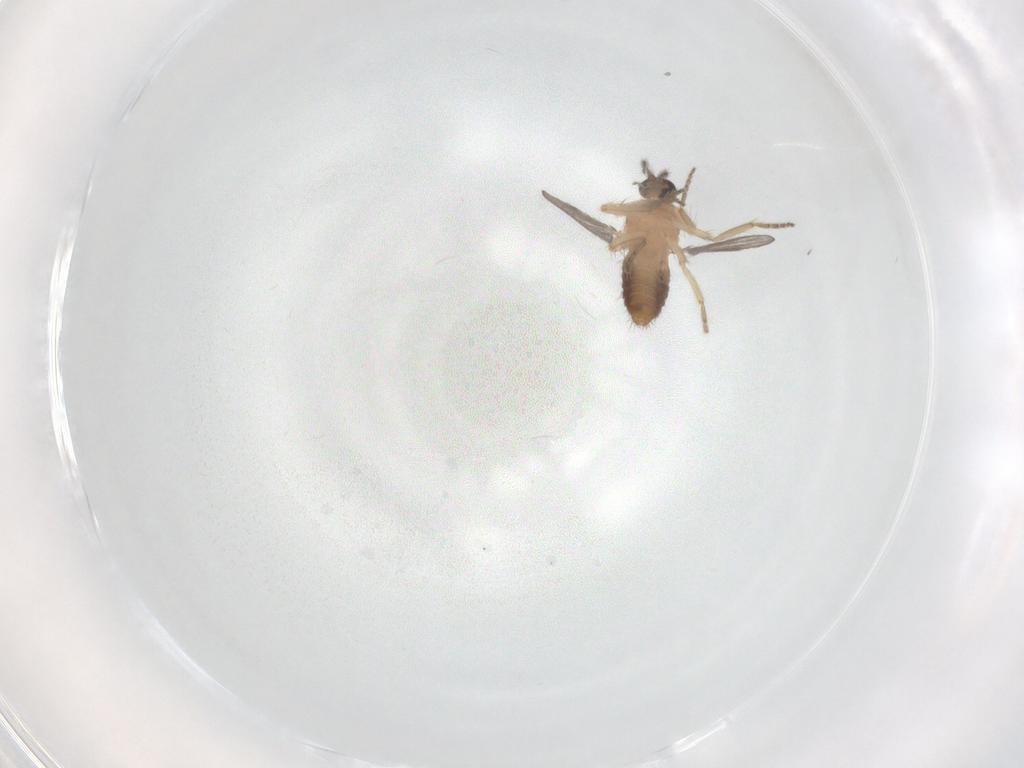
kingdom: Animalia
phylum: Arthropoda
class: Insecta
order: Diptera
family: Ceratopogonidae
